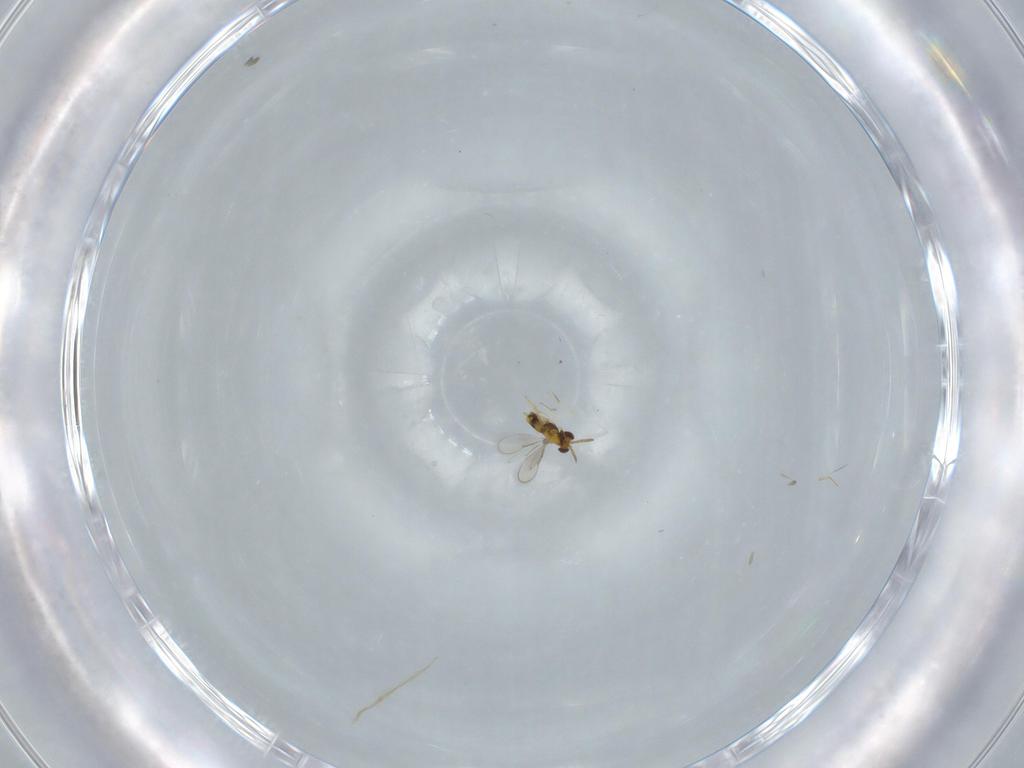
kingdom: Animalia
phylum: Arthropoda
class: Insecta
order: Hymenoptera
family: Aphelinidae
